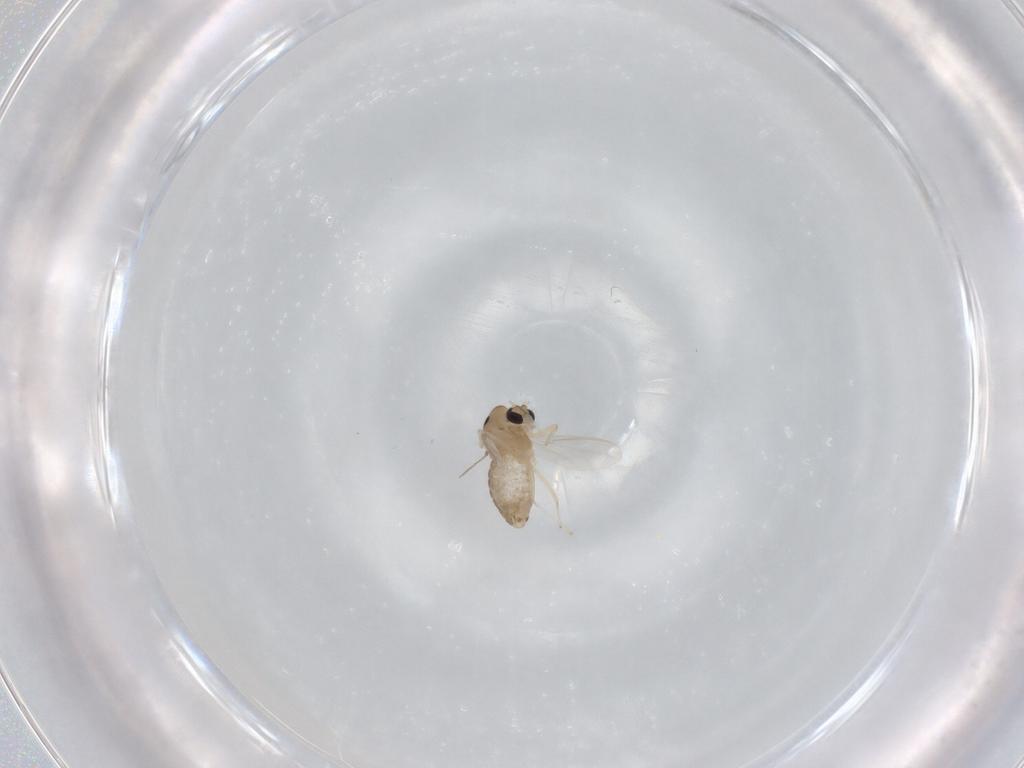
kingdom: Animalia
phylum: Arthropoda
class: Insecta
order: Diptera
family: Chironomidae
